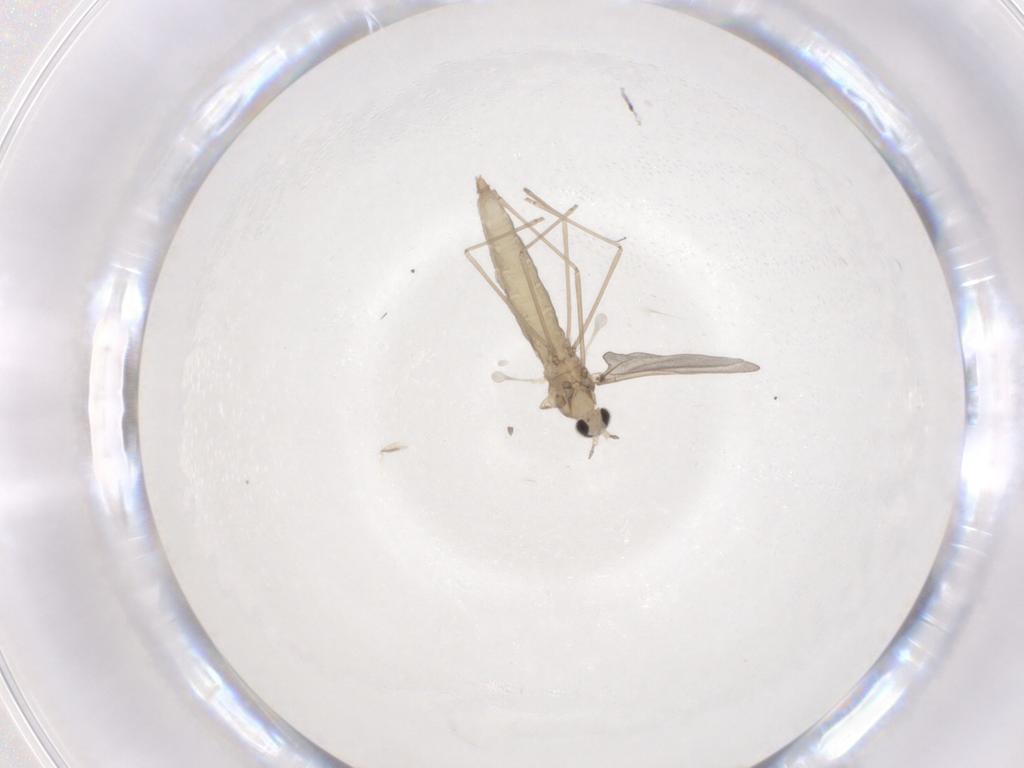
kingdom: Animalia
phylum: Arthropoda
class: Insecta
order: Diptera
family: Cecidomyiidae
